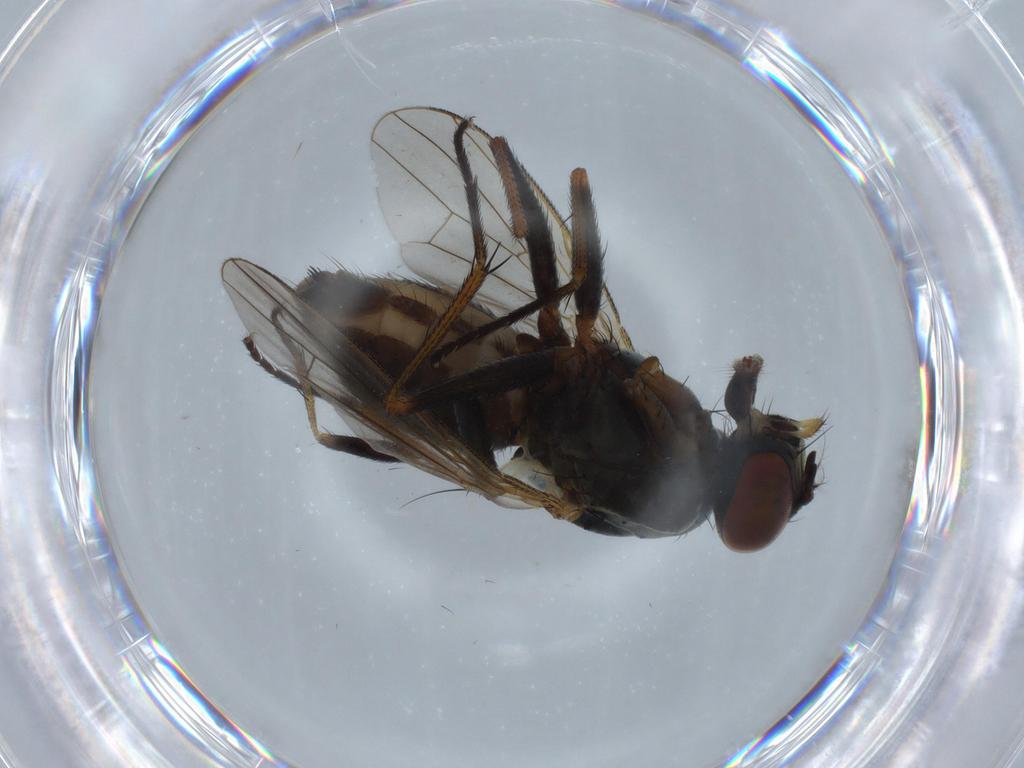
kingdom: Animalia
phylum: Arthropoda
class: Insecta
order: Diptera
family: Muscidae
